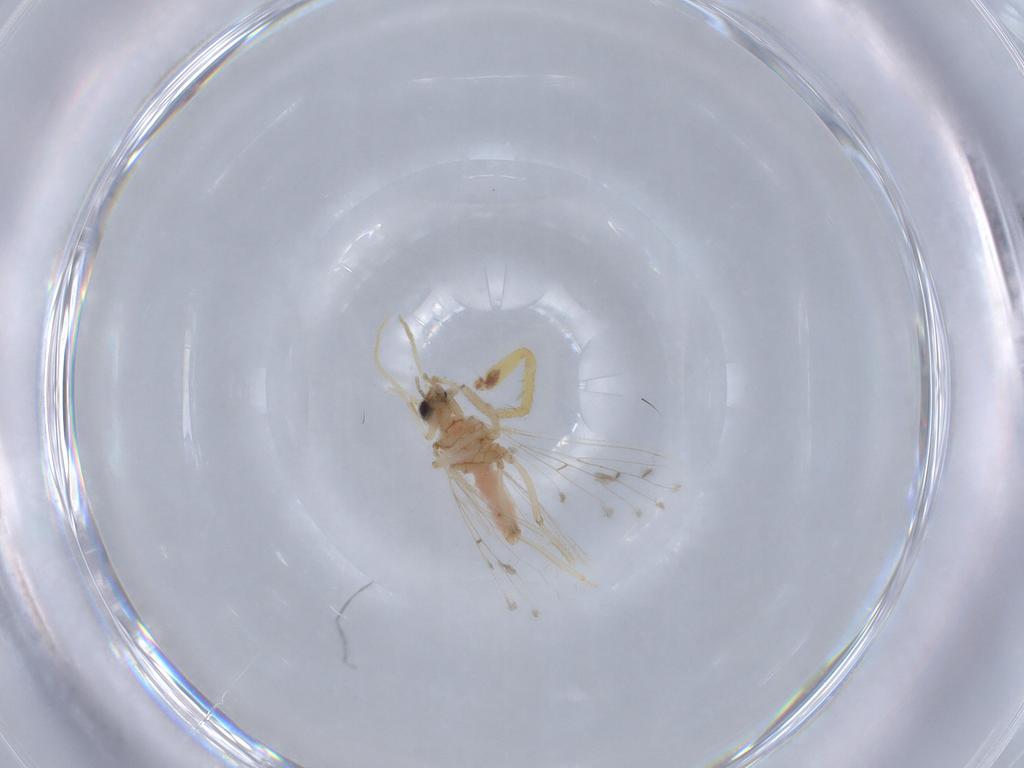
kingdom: Animalia
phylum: Arthropoda
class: Insecta
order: Neuroptera
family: Coniopterygidae
